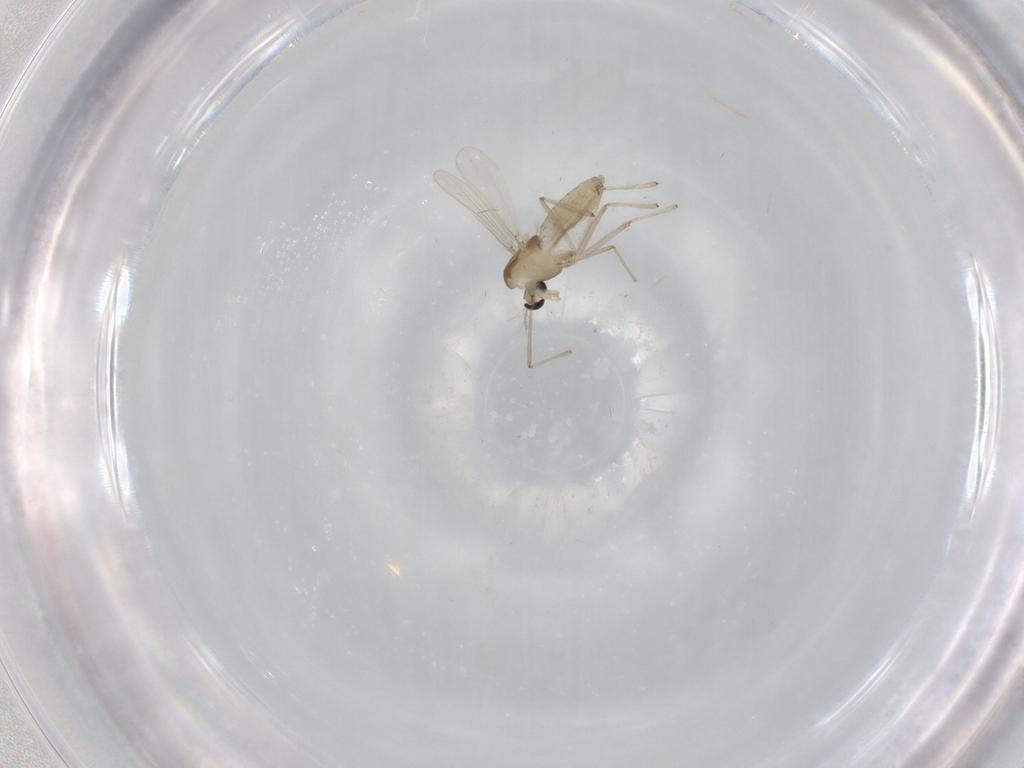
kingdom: Animalia
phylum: Arthropoda
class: Insecta
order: Diptera
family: Chironomidae
